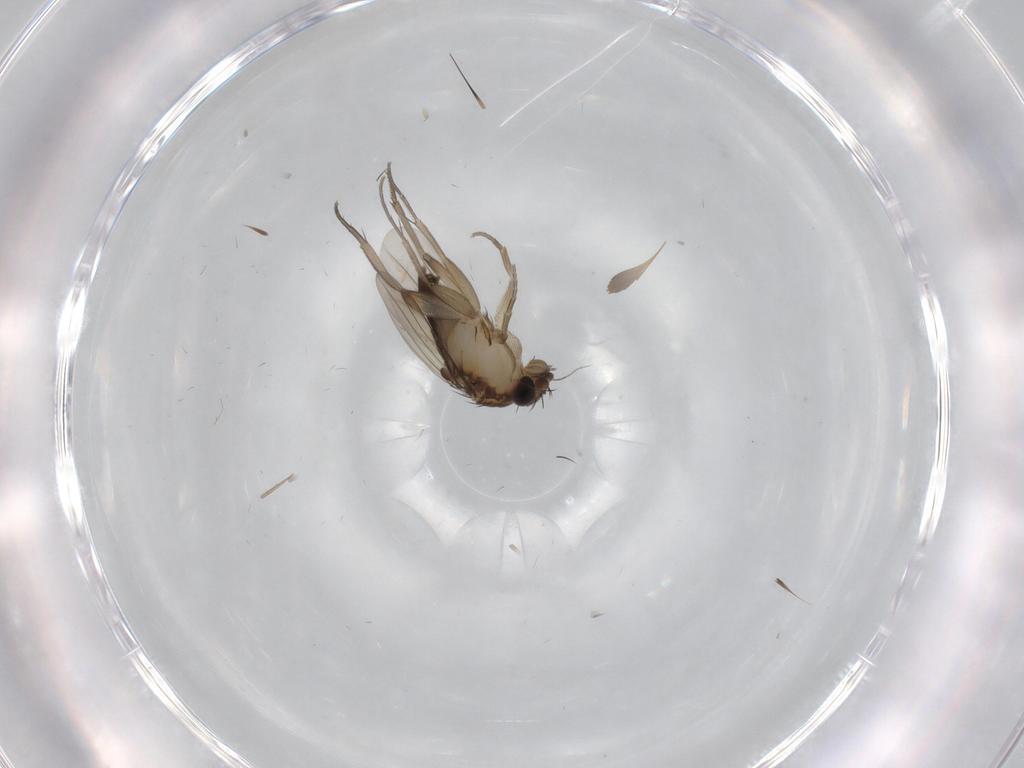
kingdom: Animalia
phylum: Arthropoda
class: Insecta
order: Diptera
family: Phoridae
